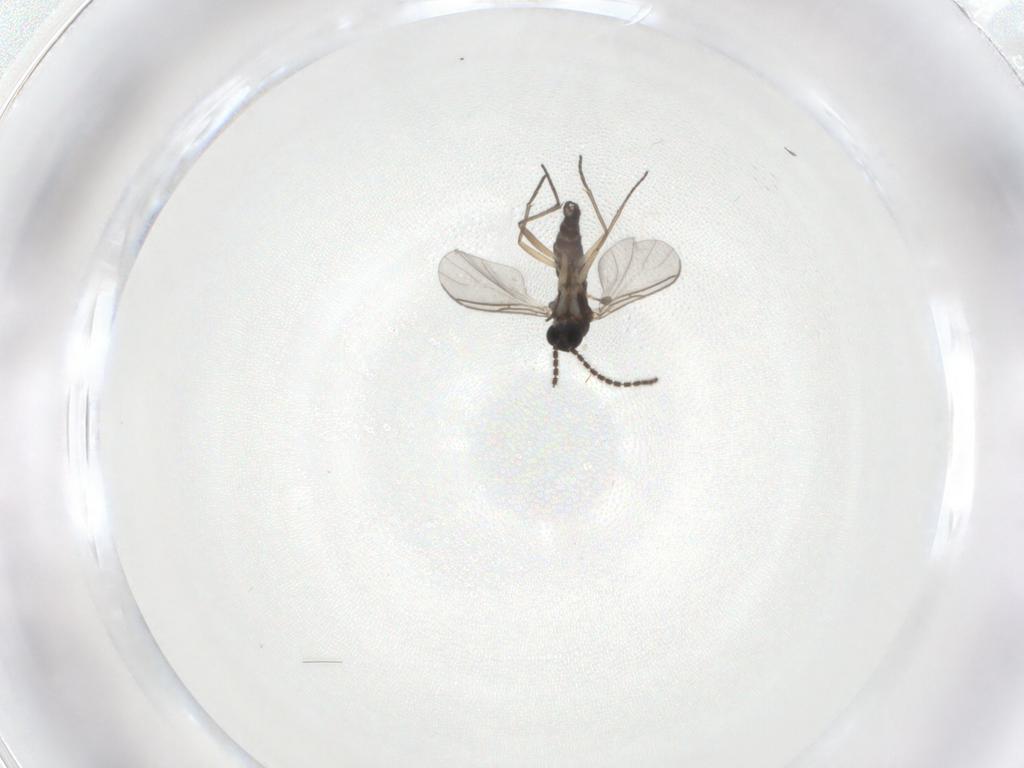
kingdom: Animalia
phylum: Arthropoda
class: Insecta
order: Diptera
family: Sciaridae
